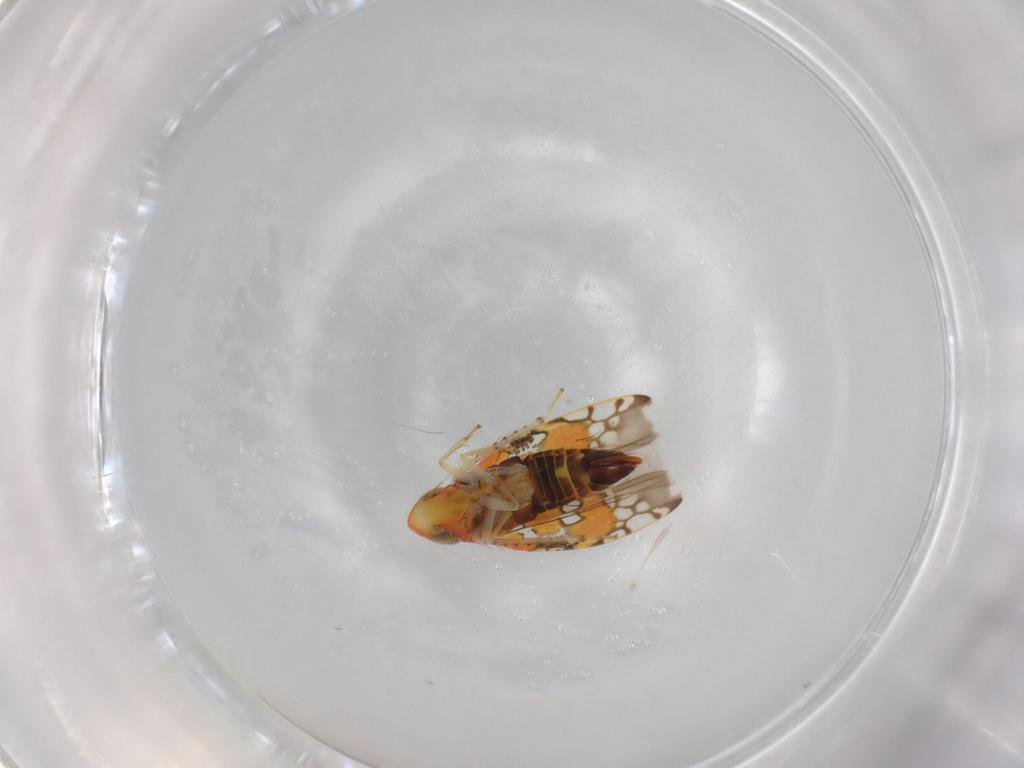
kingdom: Animalia
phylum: Arthropoda
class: Insecta
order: Hemiptera
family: Cicadellidae
